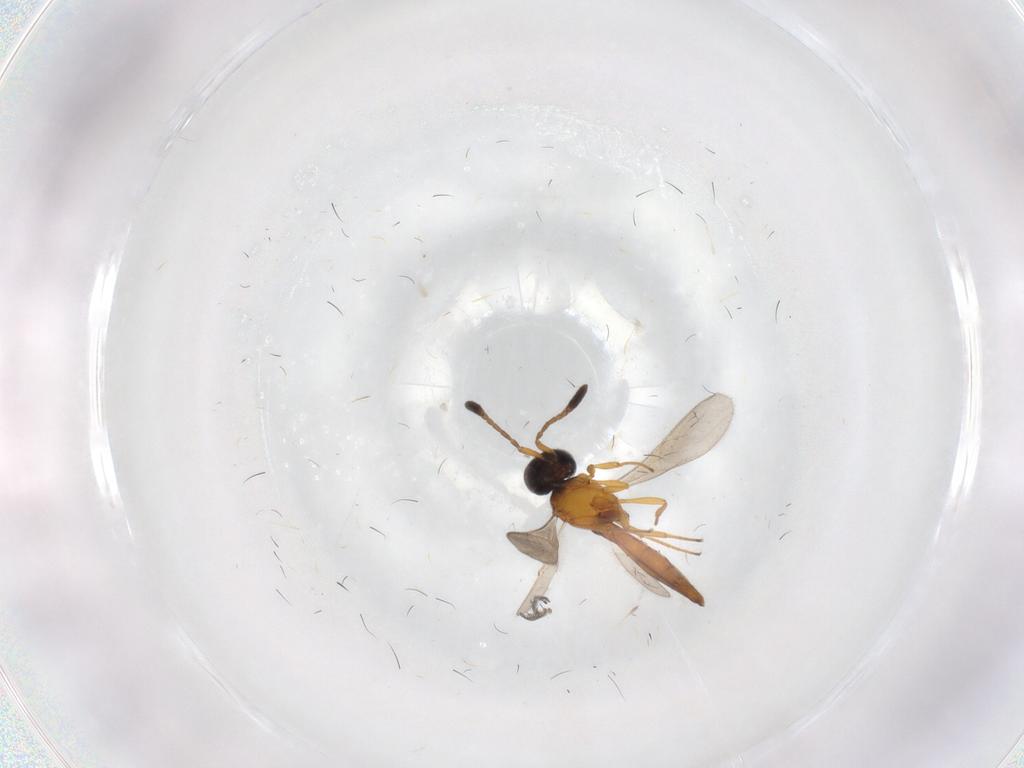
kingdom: Animalia
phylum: Arthropoda
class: Insecta
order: Hymenoptera
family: Scelionidae
